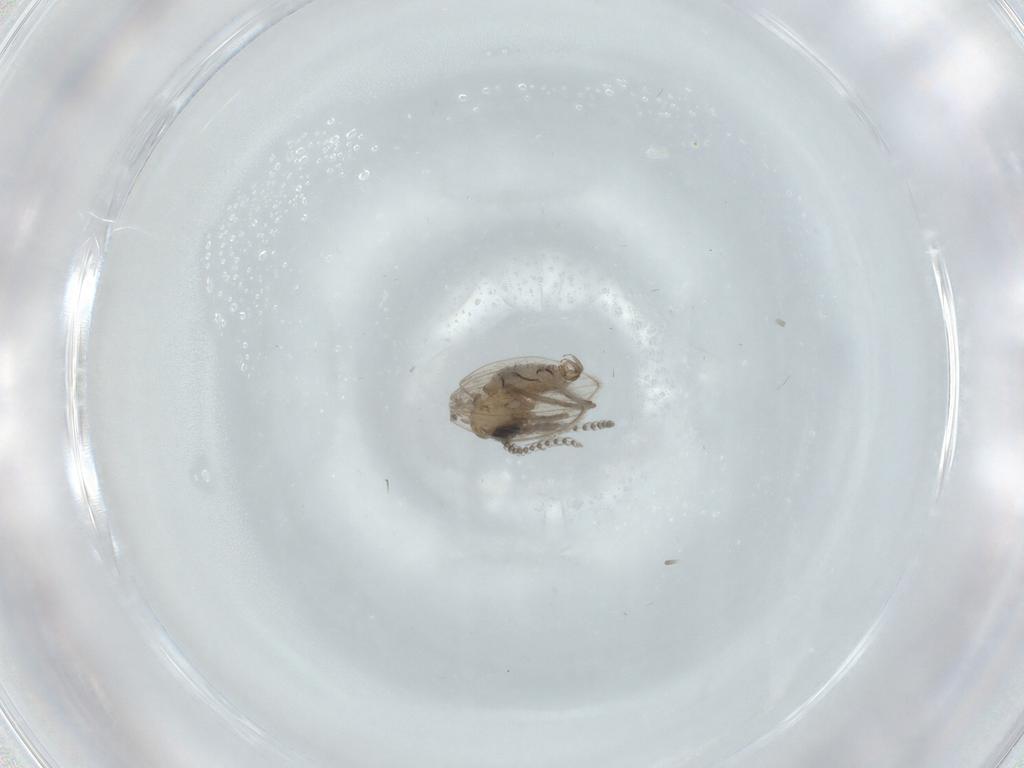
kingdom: Animalia
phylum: Arthropoda
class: Insecta
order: Diptera
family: Psychodidae
